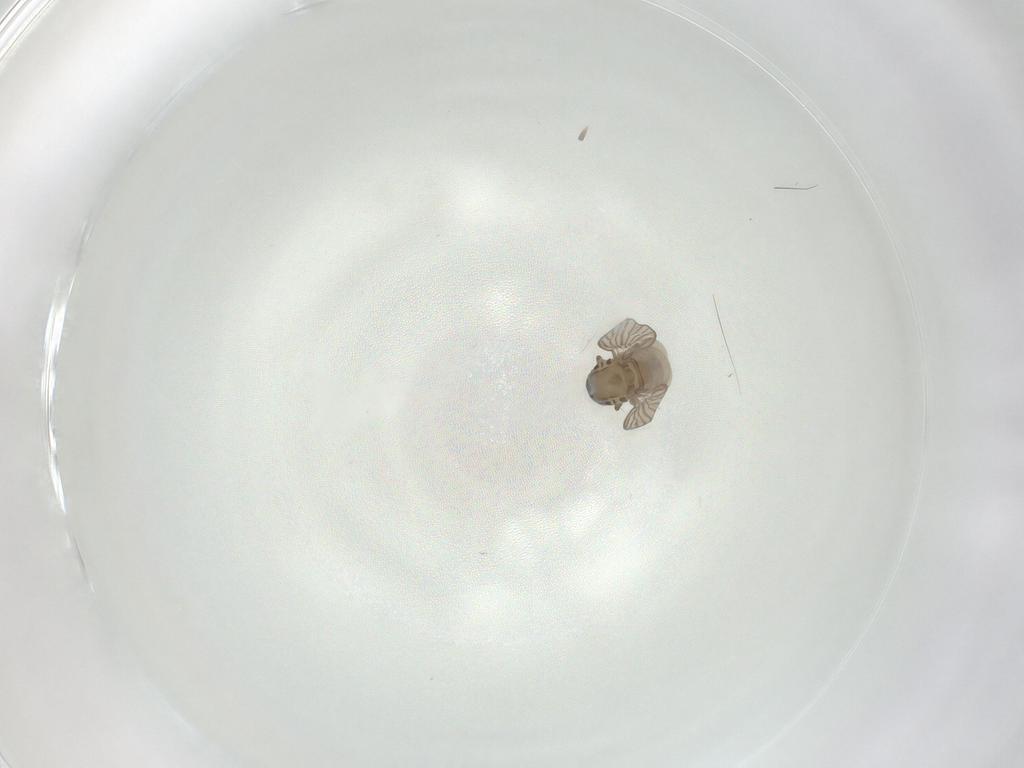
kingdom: Animalia
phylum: Arthropoda
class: Insecta
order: Diptera
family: Psychodidae
